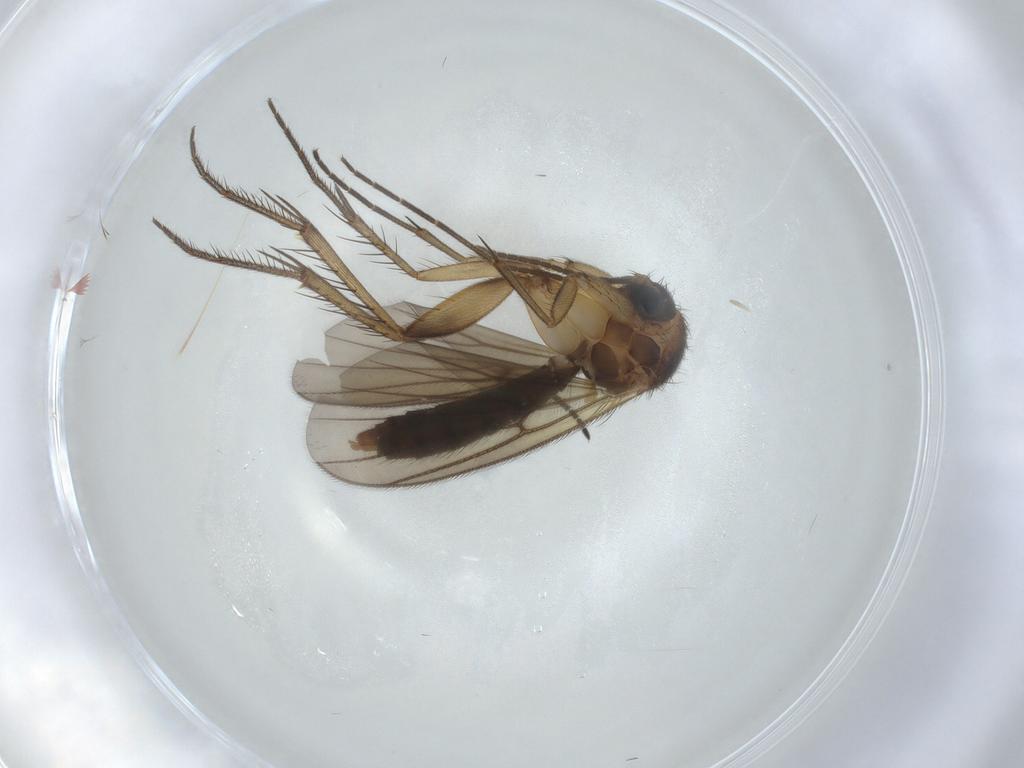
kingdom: Animalia
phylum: Arthropoda
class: Insecta
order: Diptera
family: Mycetophilidae
